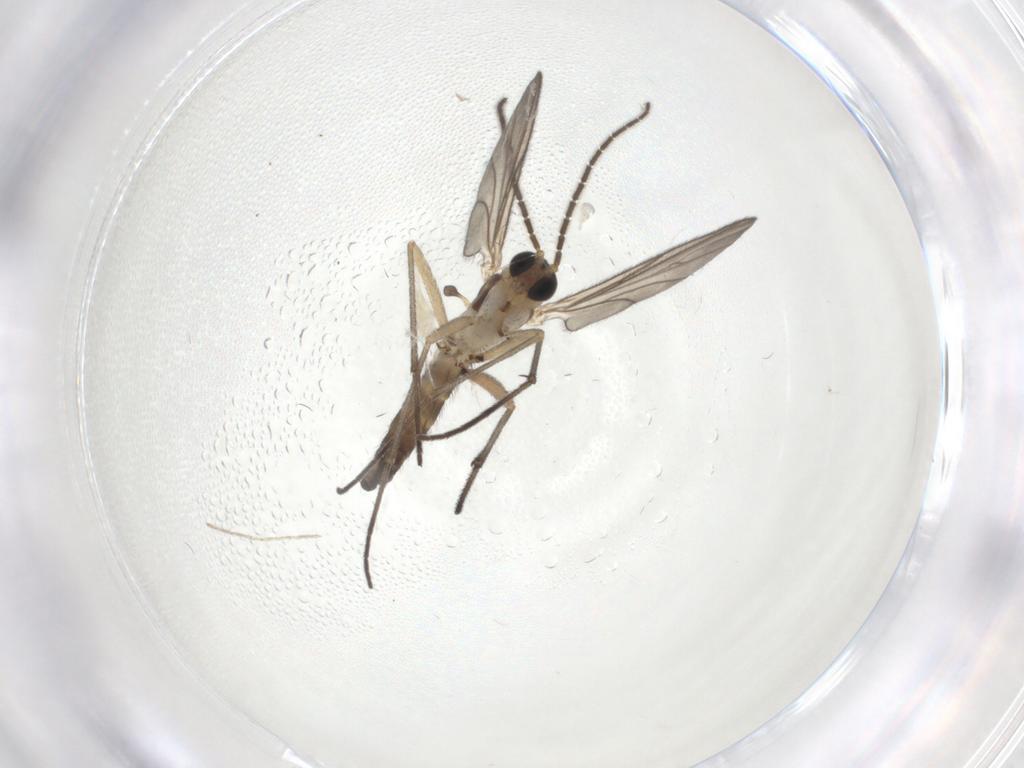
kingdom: Animalia
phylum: Arthropoda
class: Insecta
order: Diptera
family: Drosophilidae
